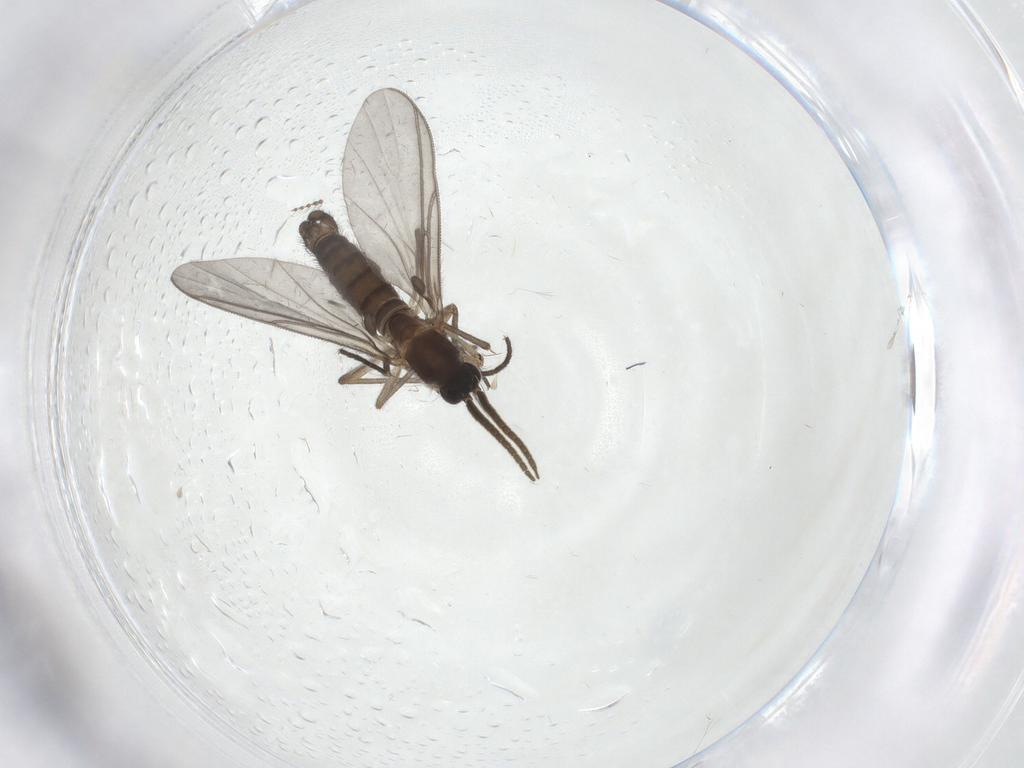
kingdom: Animalia
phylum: Arthropoda
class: Insecta
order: Diptera
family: Ceratopogonidae
